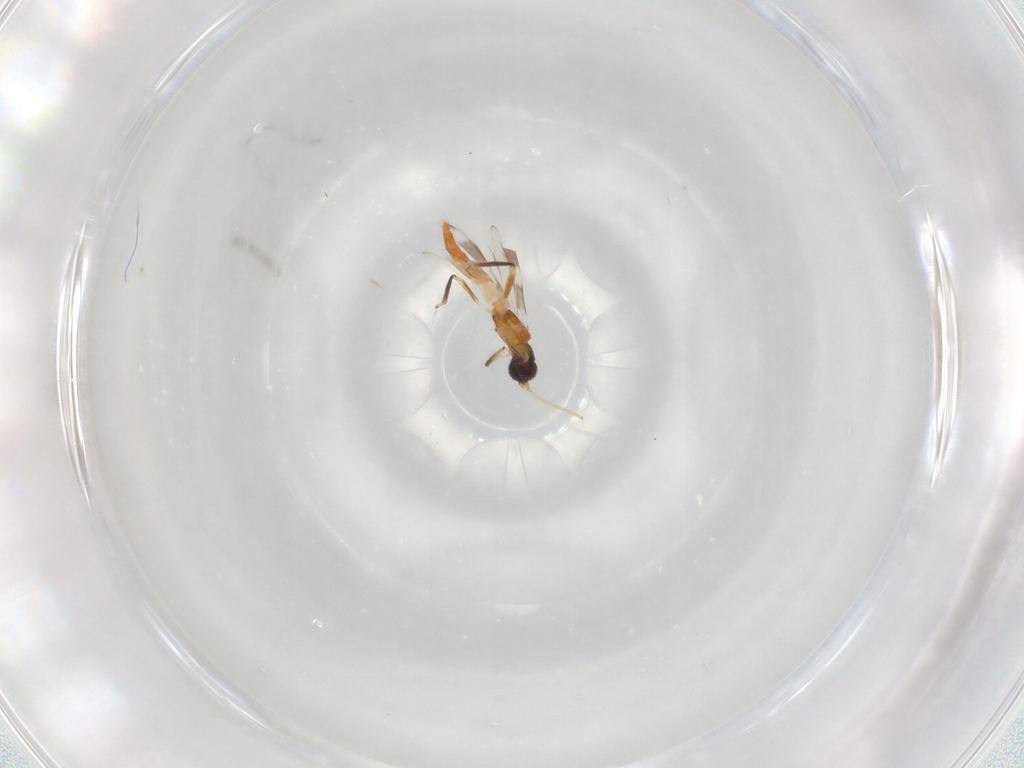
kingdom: Animalia
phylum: Arthropoda
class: Insecta
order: Thysanoptera
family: Aeolothripidae
